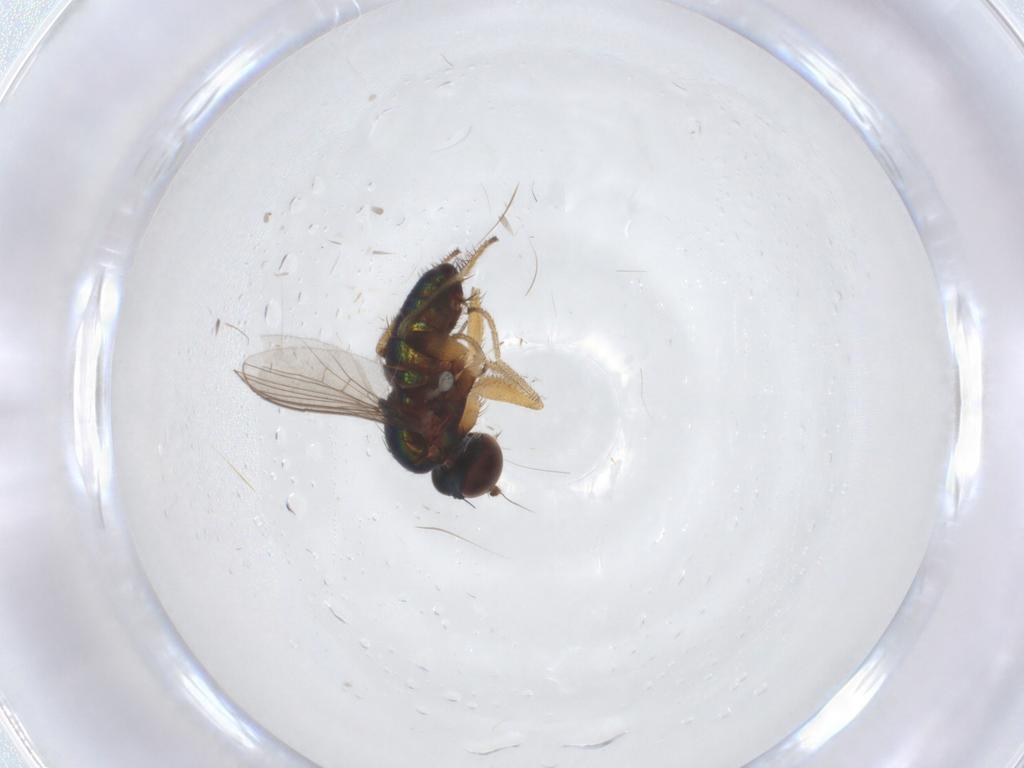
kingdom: Animalia
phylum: Arthropoda
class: Insecta
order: Diptera
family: Dolichopodidae
